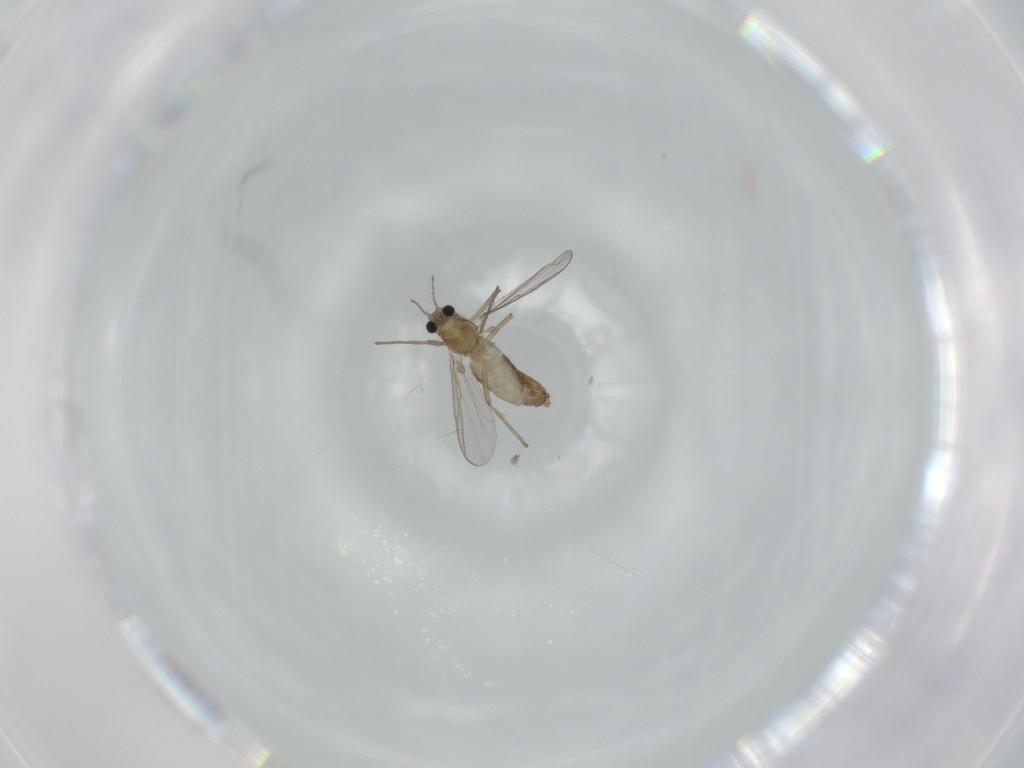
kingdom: Animalia
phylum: Arthropoda
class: Insecta
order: Diptera
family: Chironomidae
